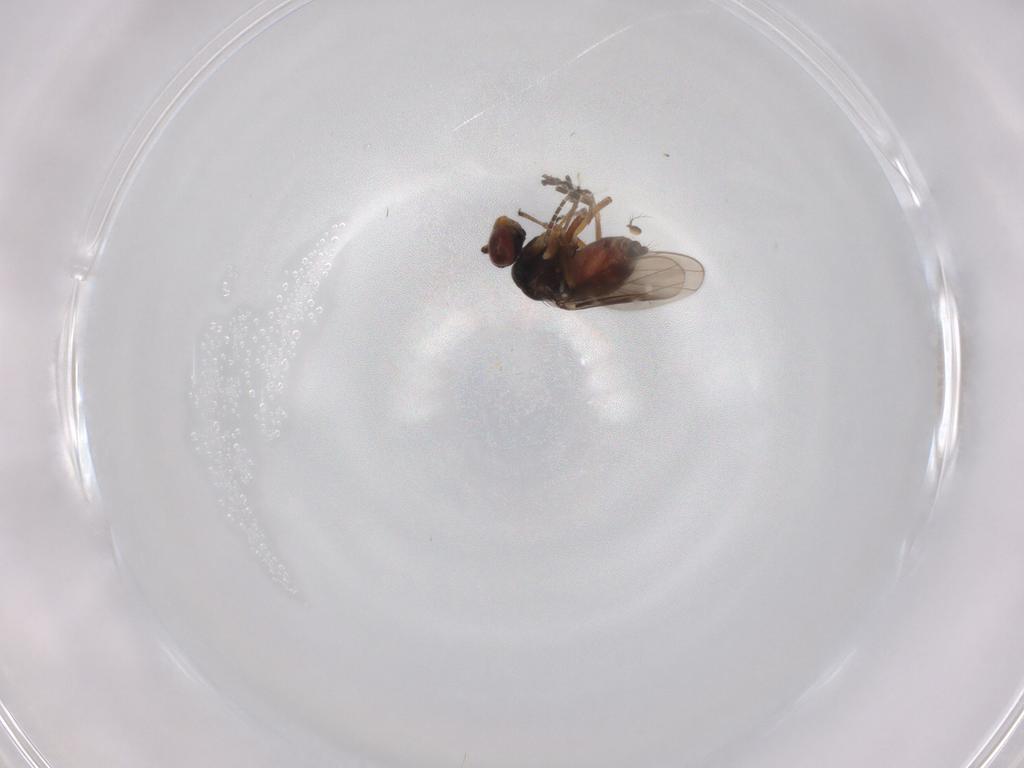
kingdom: Animalia
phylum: Arthropoda
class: Insecta
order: Diptera
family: Ephydridae
